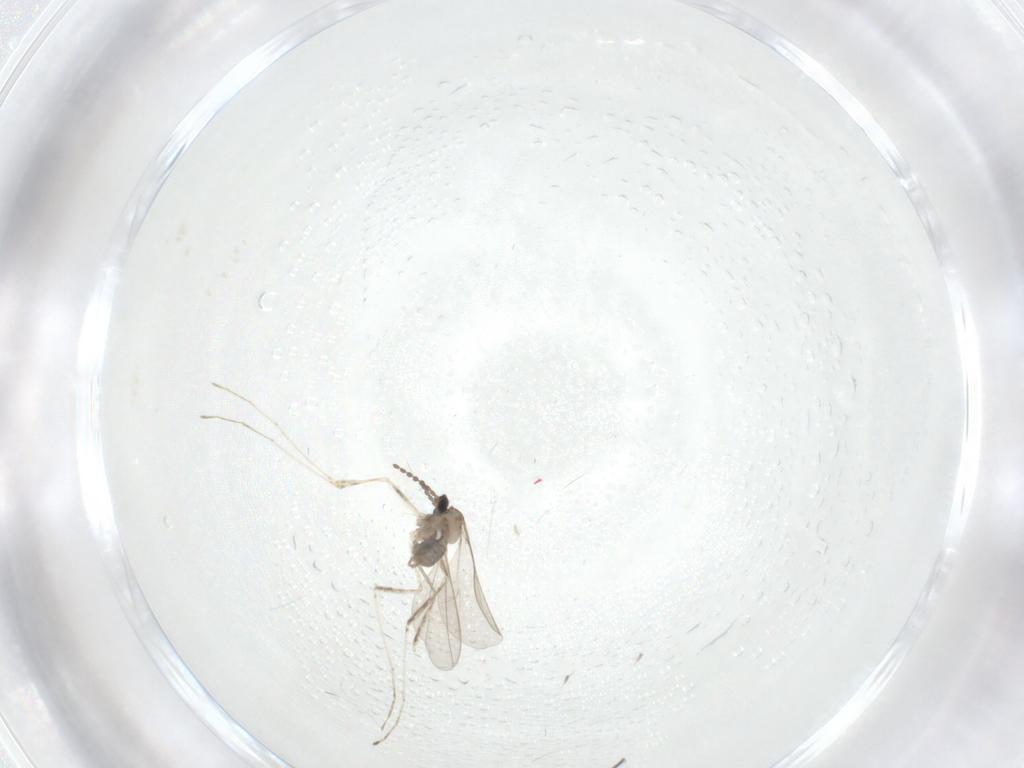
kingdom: Animalia
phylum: Arthropoda
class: Insecta
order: Diptera
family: Cecidomyiidae
